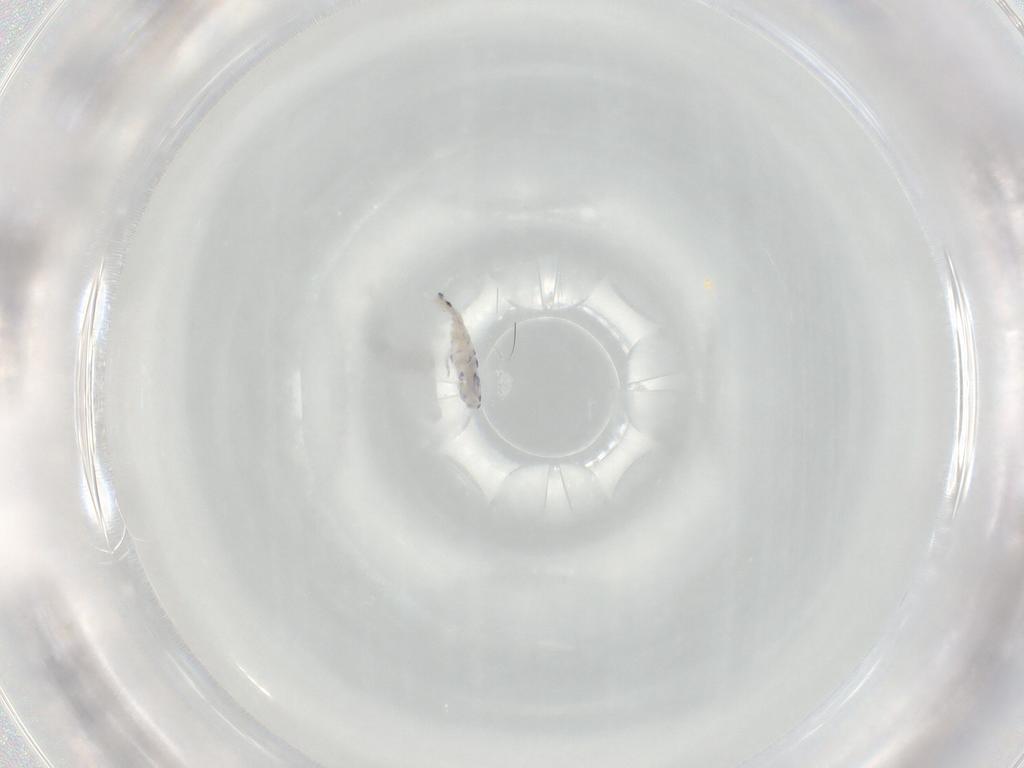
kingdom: Animalia
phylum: Arthropoda
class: Collembola
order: Entomobryomorpha
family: Entomobryidae
